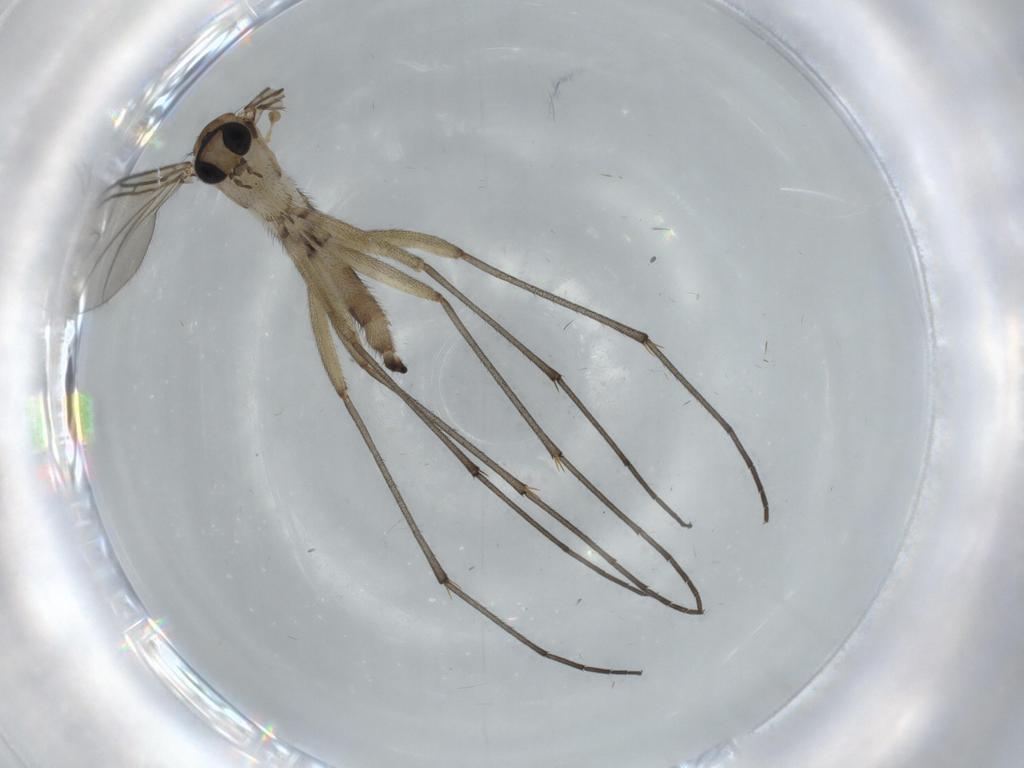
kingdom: Animalia
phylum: Arthropoda
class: Insecta
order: Diptera
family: Sciaridae
